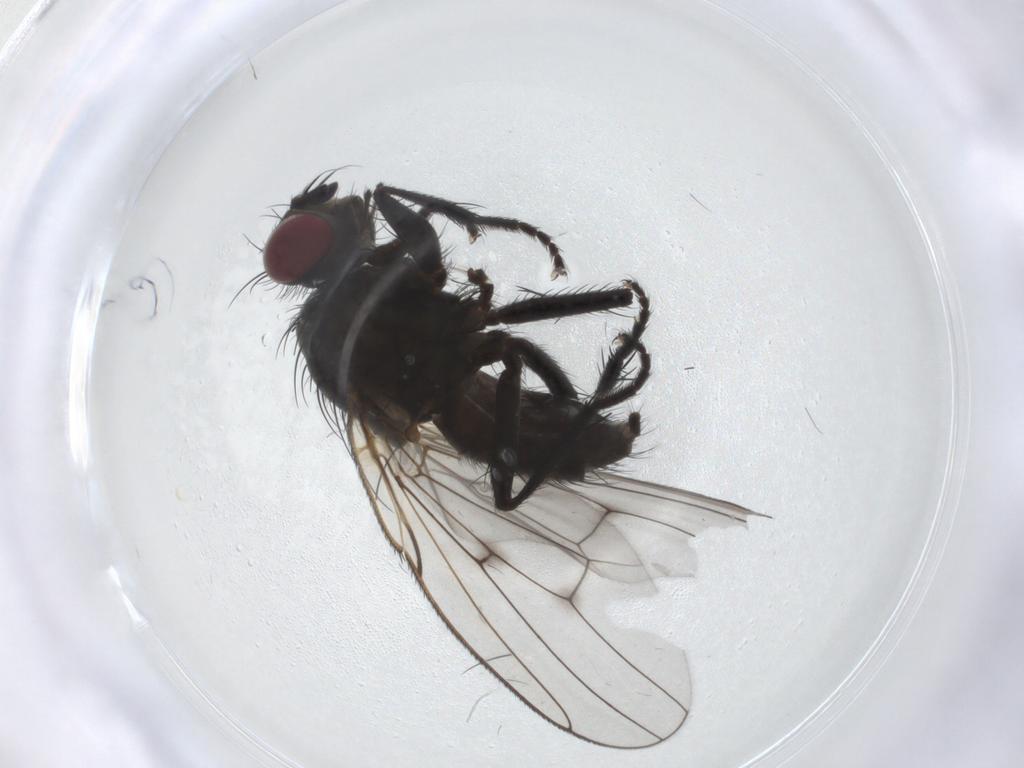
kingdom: Animalia
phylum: Arthropoda
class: Insecta
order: Diptera
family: Muscidae
